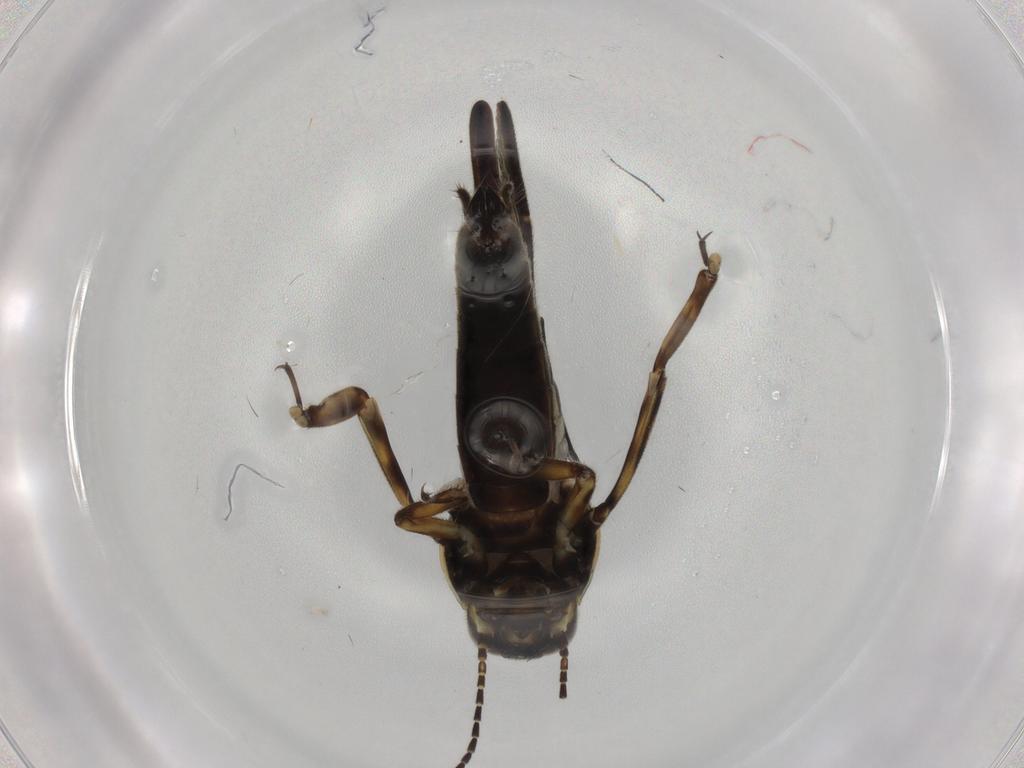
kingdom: Animalia
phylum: Arthropoda
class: Insecta
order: Orthoptera
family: Ripipterygidae
